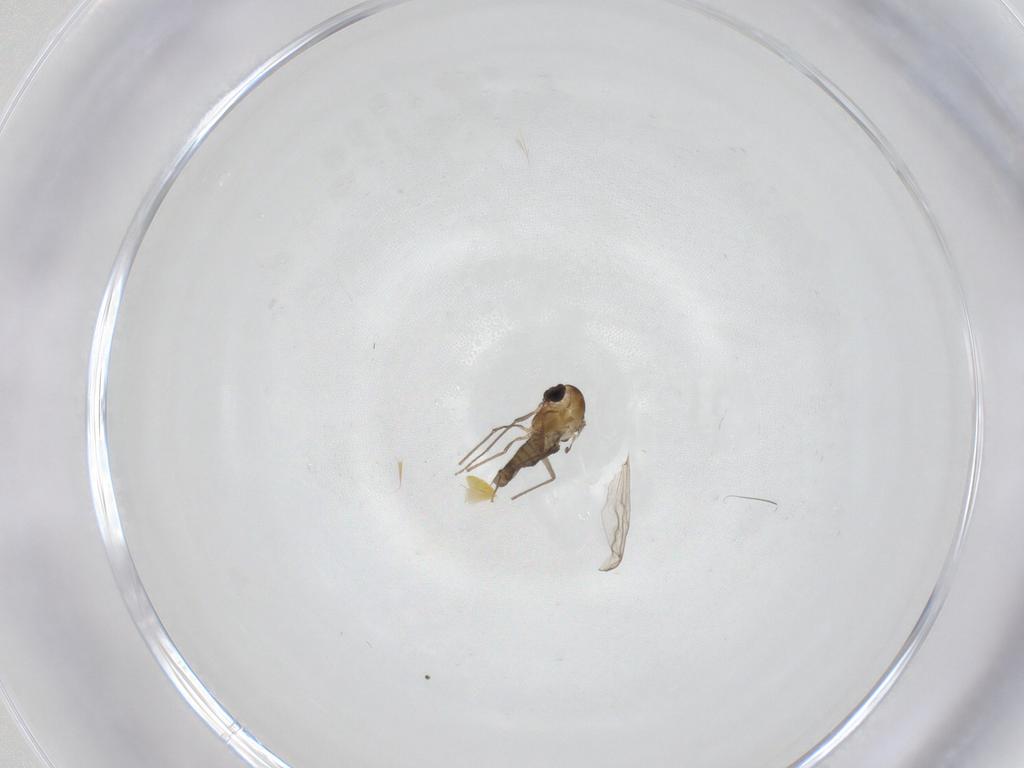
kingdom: Animalia
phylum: Arthropoda
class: Insecta
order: Diptera
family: Chironomidae
